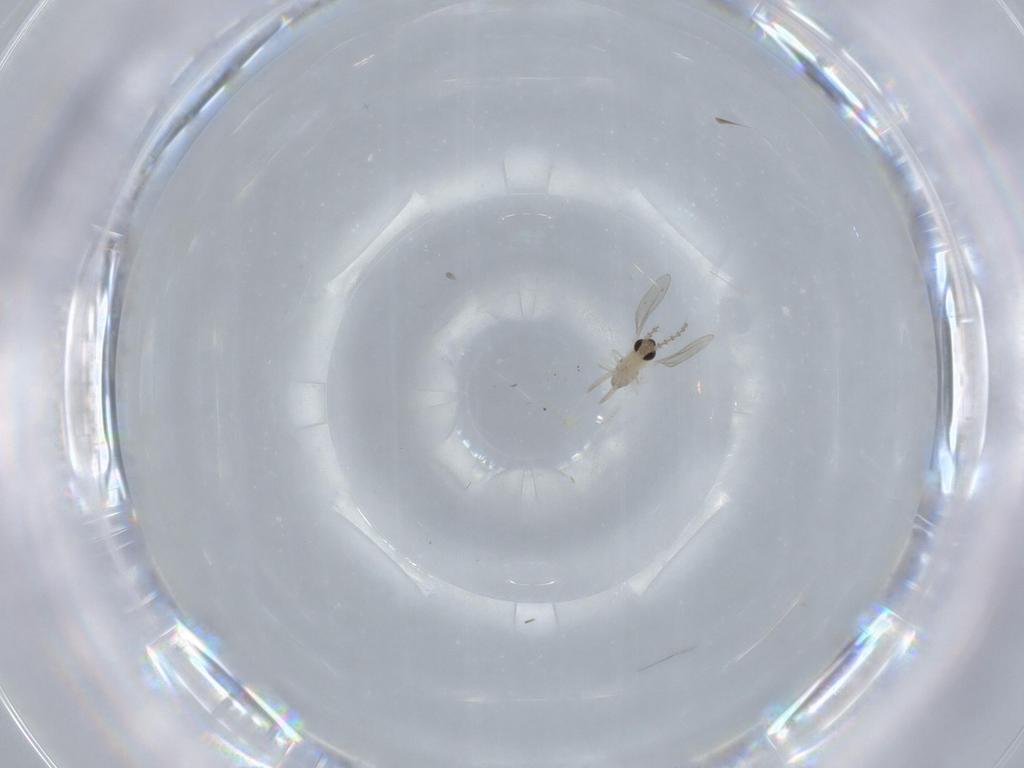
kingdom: Animalia
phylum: Arthropoda
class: Insecta
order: Diptera
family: Cecidomyiidae
